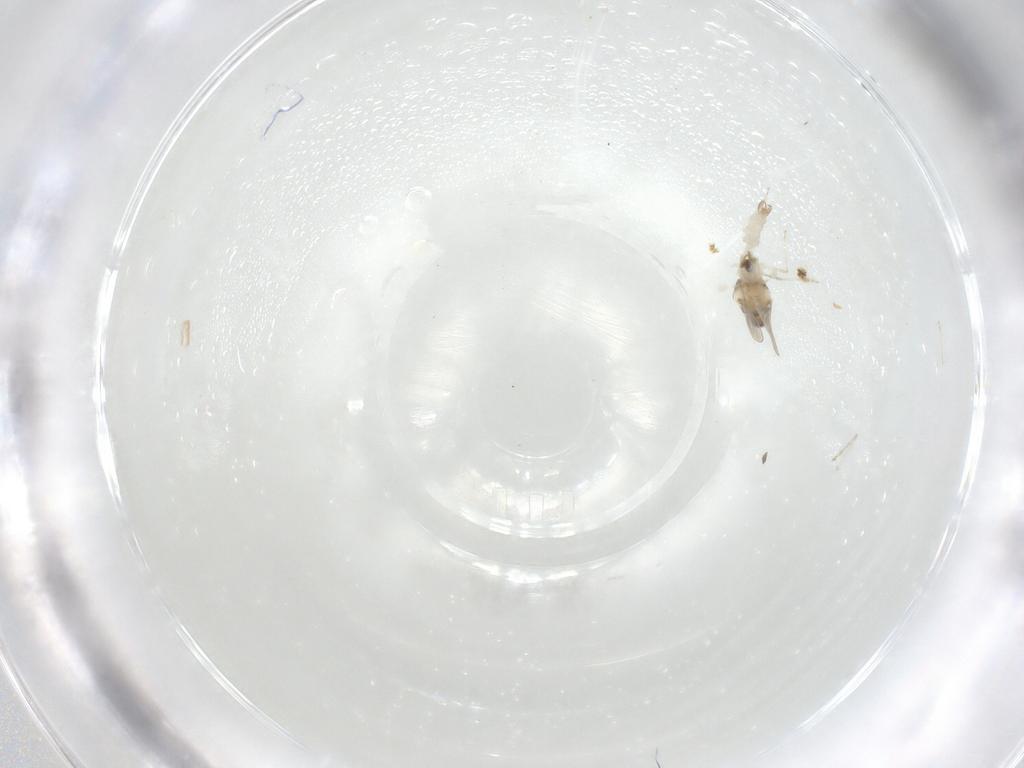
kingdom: Animalia
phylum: Arthropoda
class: Insecta
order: Diptera
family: Cecidomyiidae
